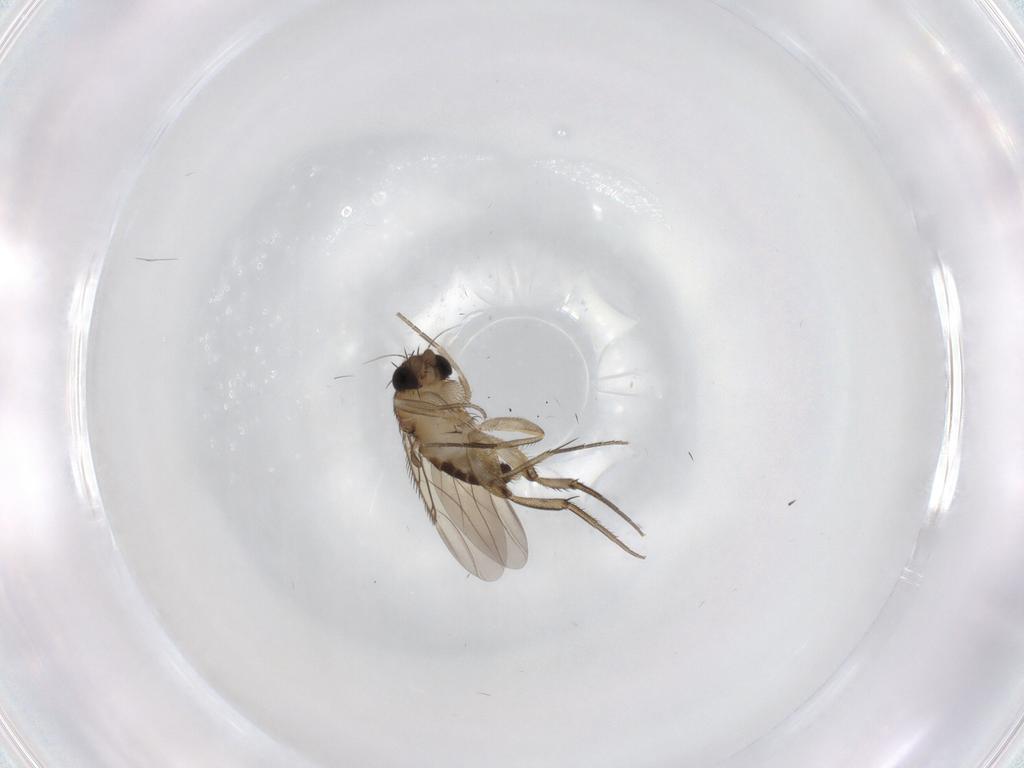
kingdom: Animalia
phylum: Arthropoda
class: Insecta
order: Diptera
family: Phoridae
